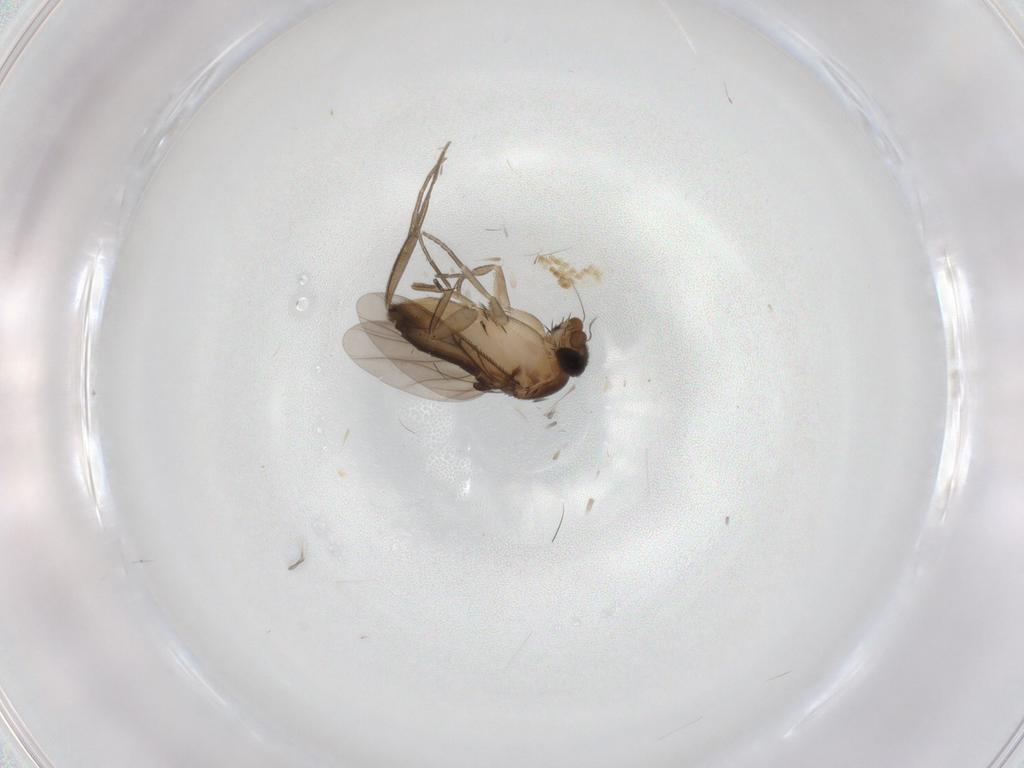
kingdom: Animalia
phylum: Arthropoda
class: Insecta
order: Diptera
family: Phoridae
